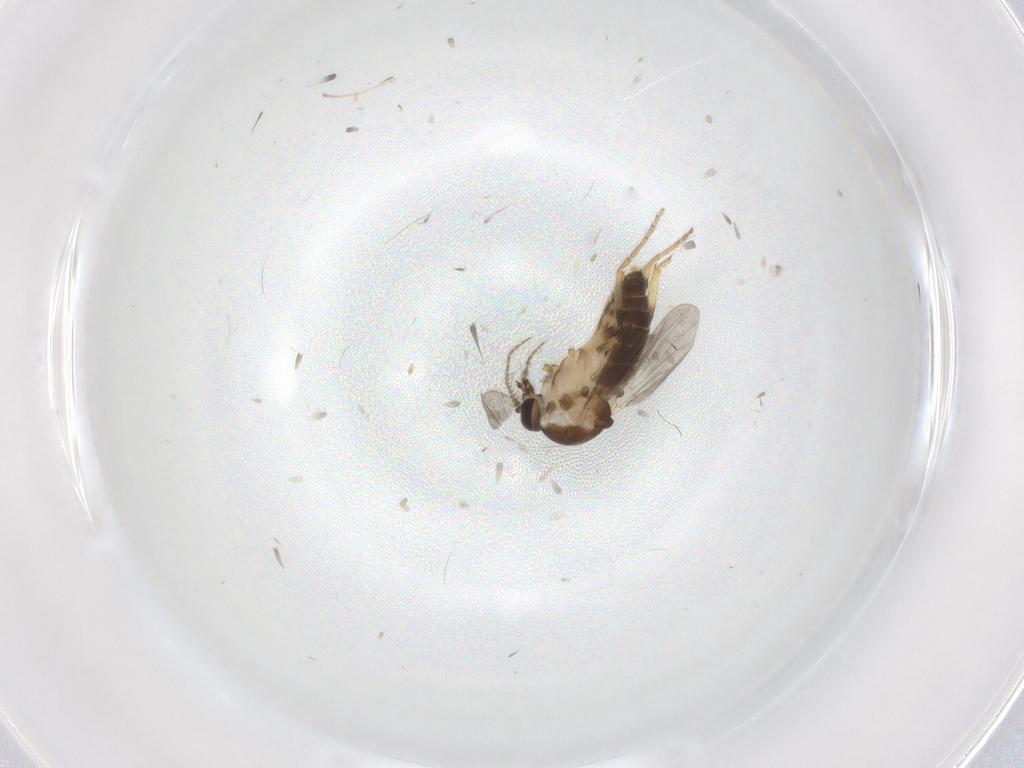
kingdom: Animalia
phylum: Arthropoda
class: Insecta
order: Diptera
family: Ceratopogonidae
